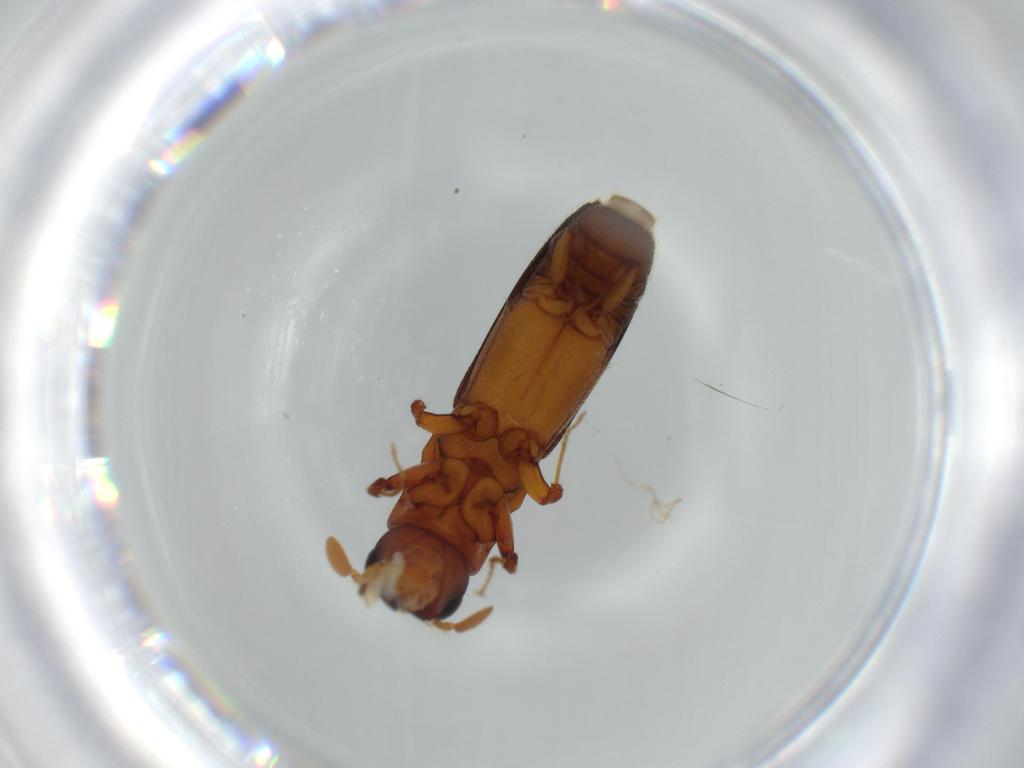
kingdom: Animalia
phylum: Arthropoda
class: Insecta
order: Coleoptera
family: Curculionidae
